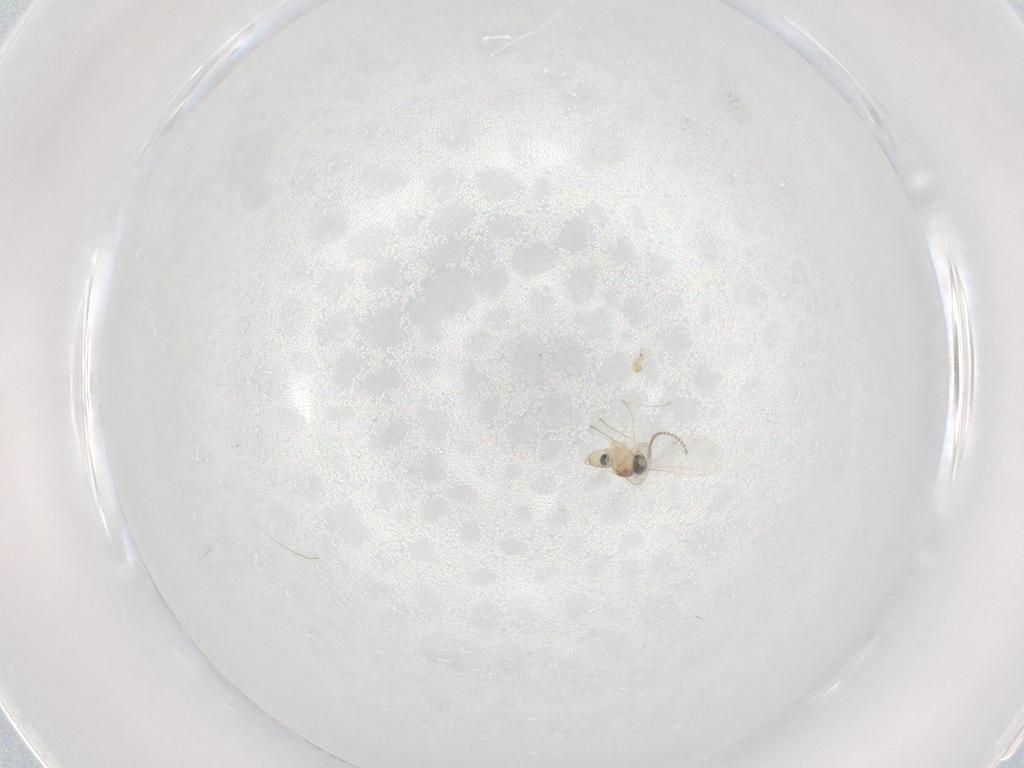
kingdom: Animalia
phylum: Arthropoda
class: Insecta
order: Diptera
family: Cecidomyiidae
